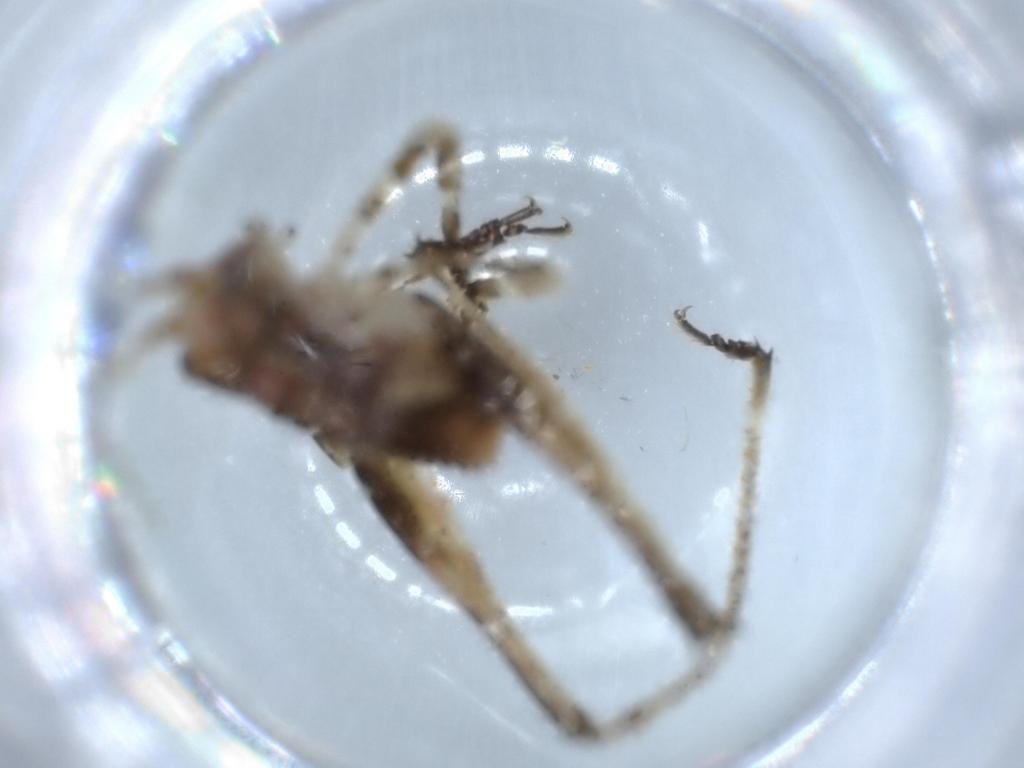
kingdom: Animalia
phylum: Arthropoda
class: Insecta
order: Orthoptera
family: Tettigoniidae
